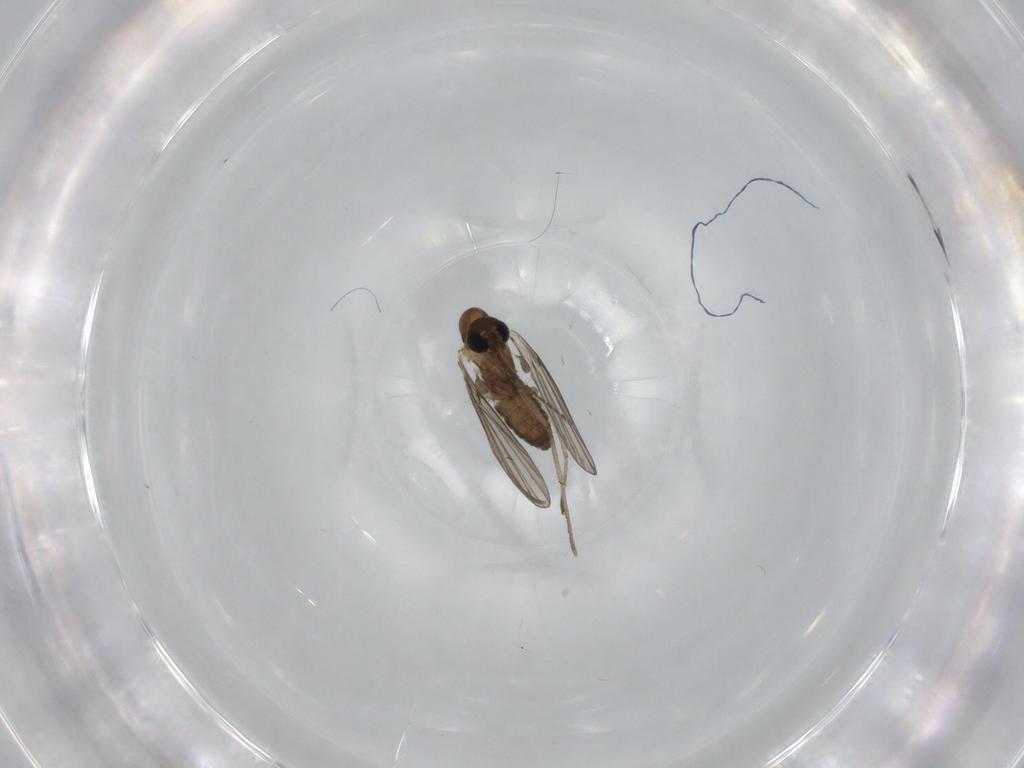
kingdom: Animalia
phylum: Arthropoda
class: Insecta
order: Diptera
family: Psychodidae
